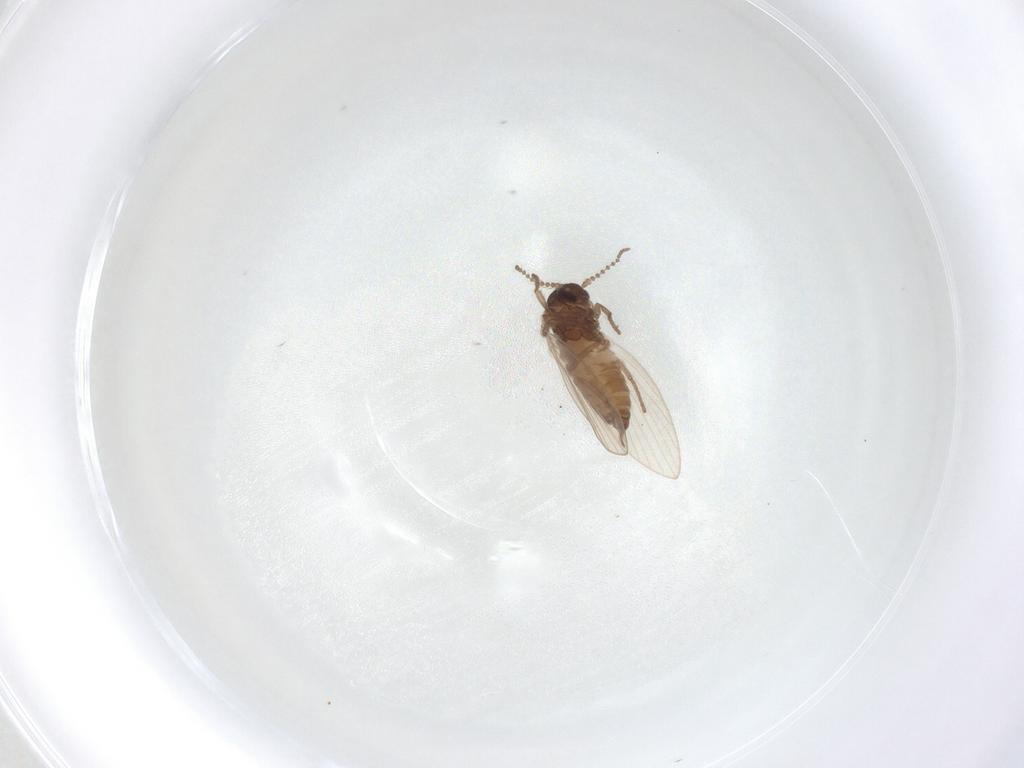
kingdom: Animalia
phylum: Arthropoda
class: Insecta
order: Diptera
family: Psychodidae
